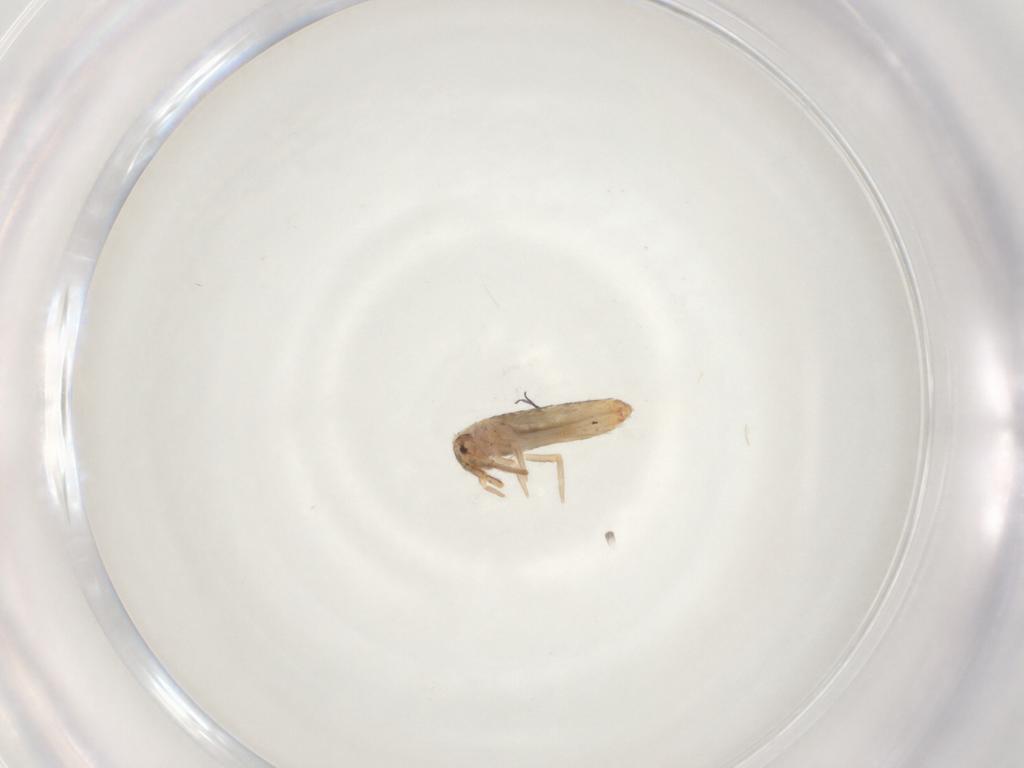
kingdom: Animalia
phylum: Arthropoda
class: Collembola
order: Entomobryomorpha
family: Entomobryidae
